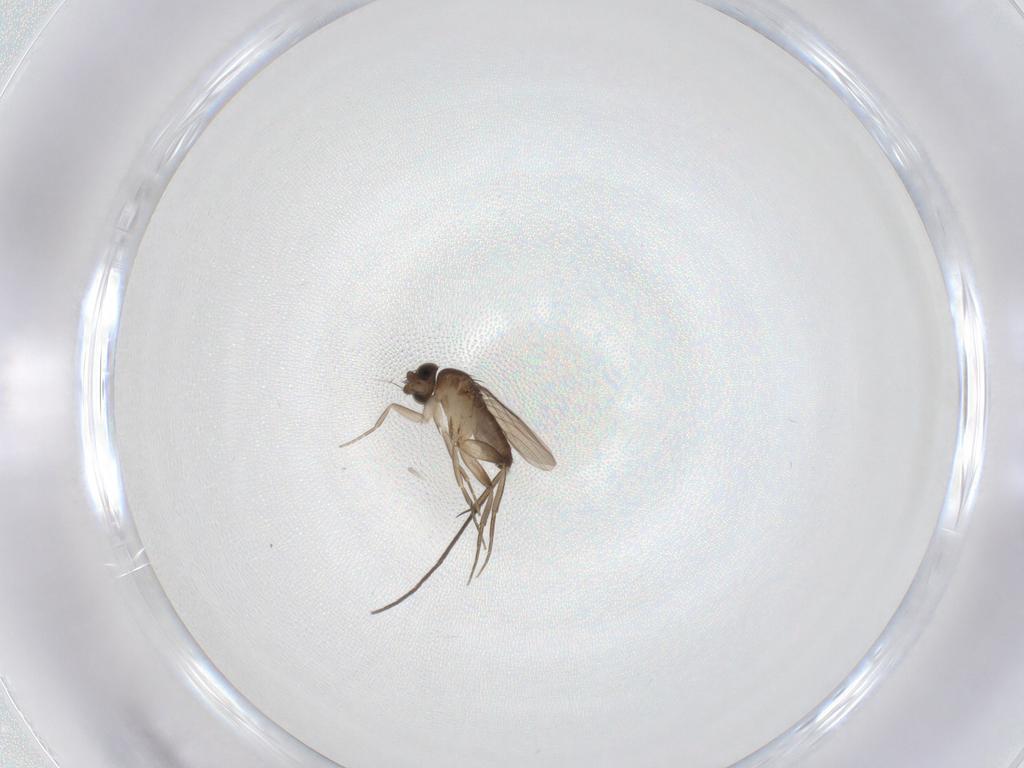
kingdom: Animalia
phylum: Arthropoda
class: Insecta
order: Diptera
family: Phoridae
